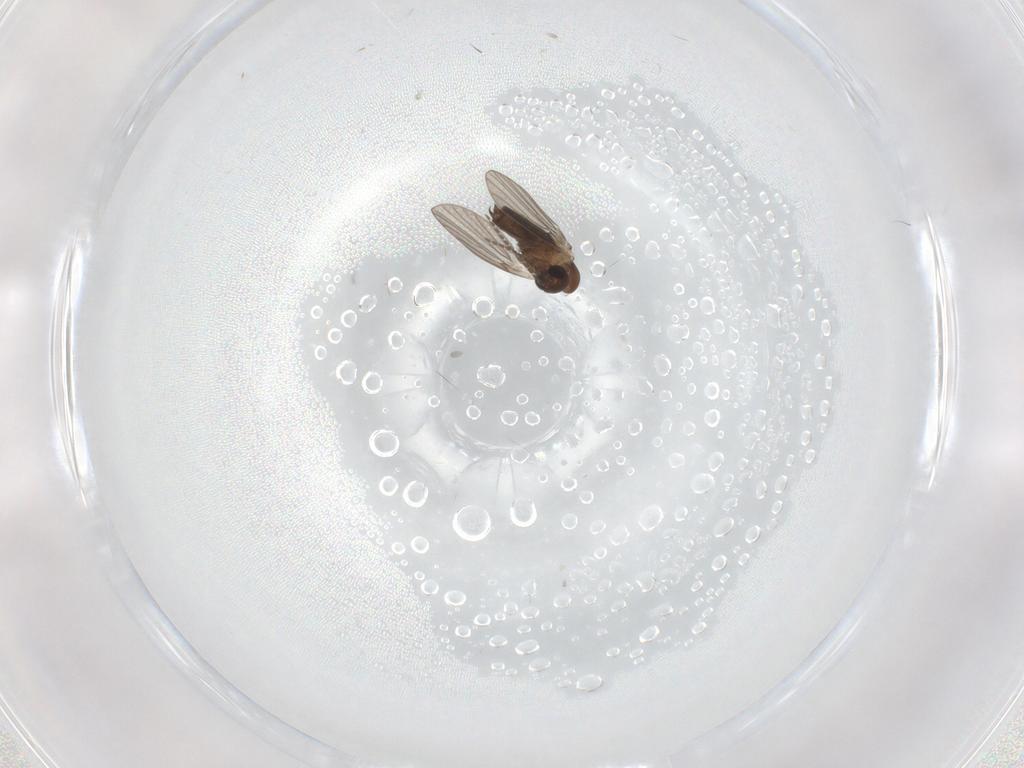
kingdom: Animalia
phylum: Arthropoda
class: Insecta
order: Diptera
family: Cecidomyiidae
